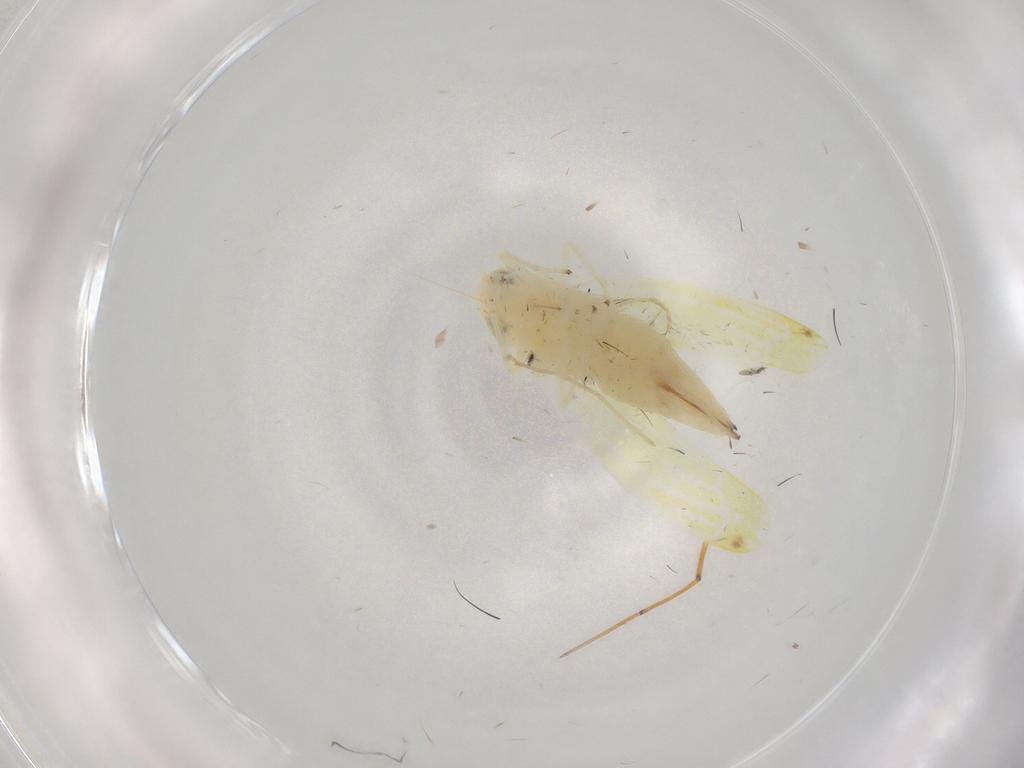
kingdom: Animalia
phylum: Arthropoda
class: Insecta
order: Hemiptera
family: Cicadellidae
